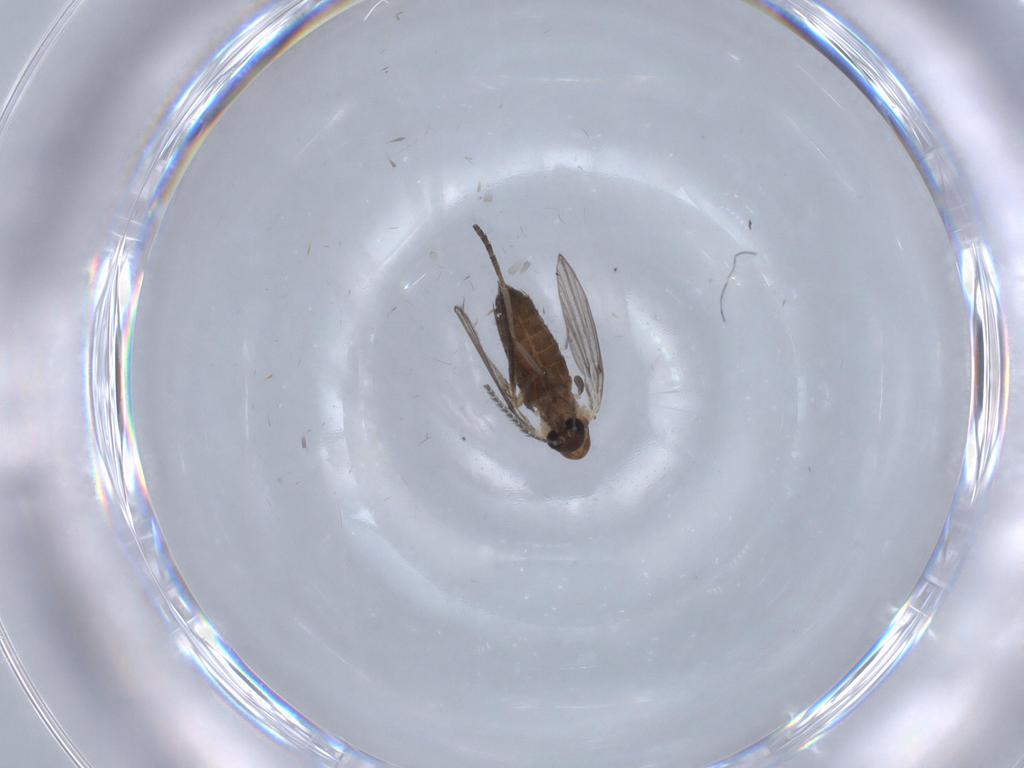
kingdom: Animalia
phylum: Arthropoda
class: Insecta
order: Diptera
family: Psychodidae
